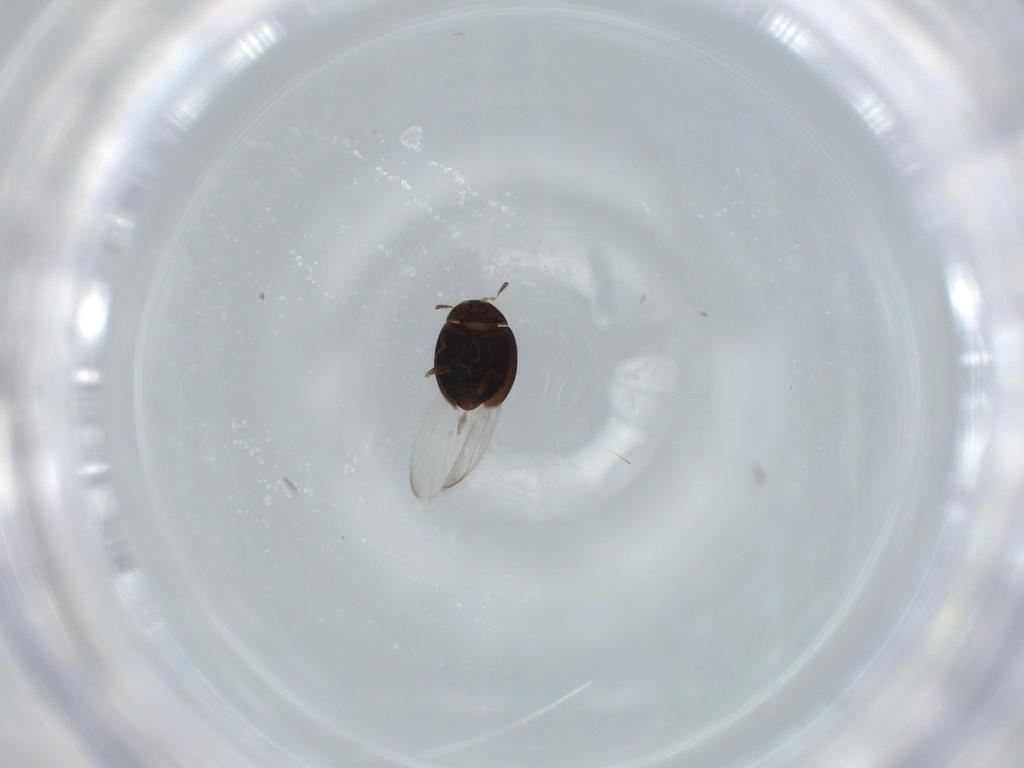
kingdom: Animalia
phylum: Arthropoda
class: Insecta
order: Coleoptera
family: Corylophidae
